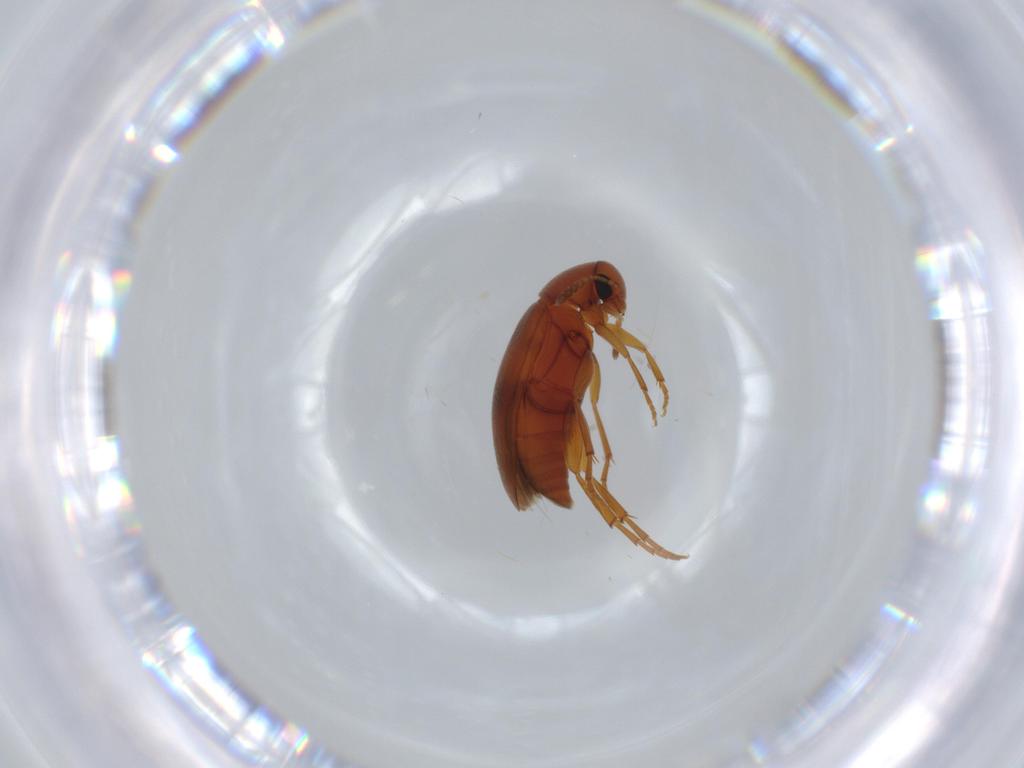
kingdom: Animalia
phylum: Arthropoda
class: Insecta
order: Coleoptera
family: Scraptiidae
